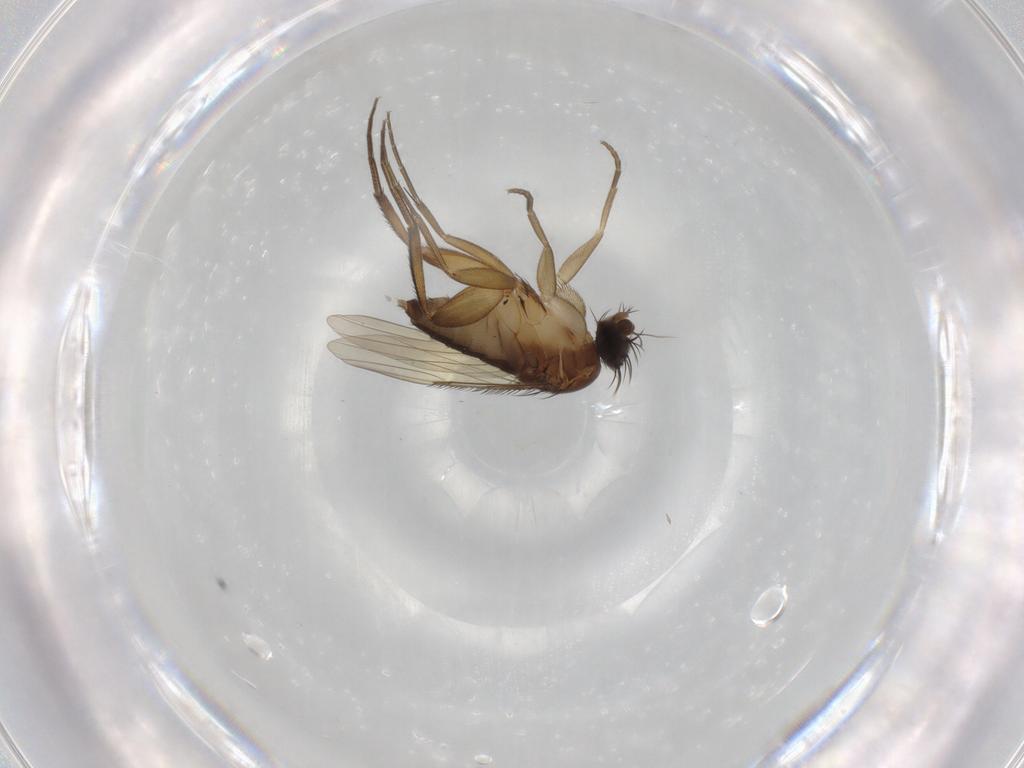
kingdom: Animalia
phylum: Arthropoda
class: Insecta
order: Diptera
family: Phoridae
